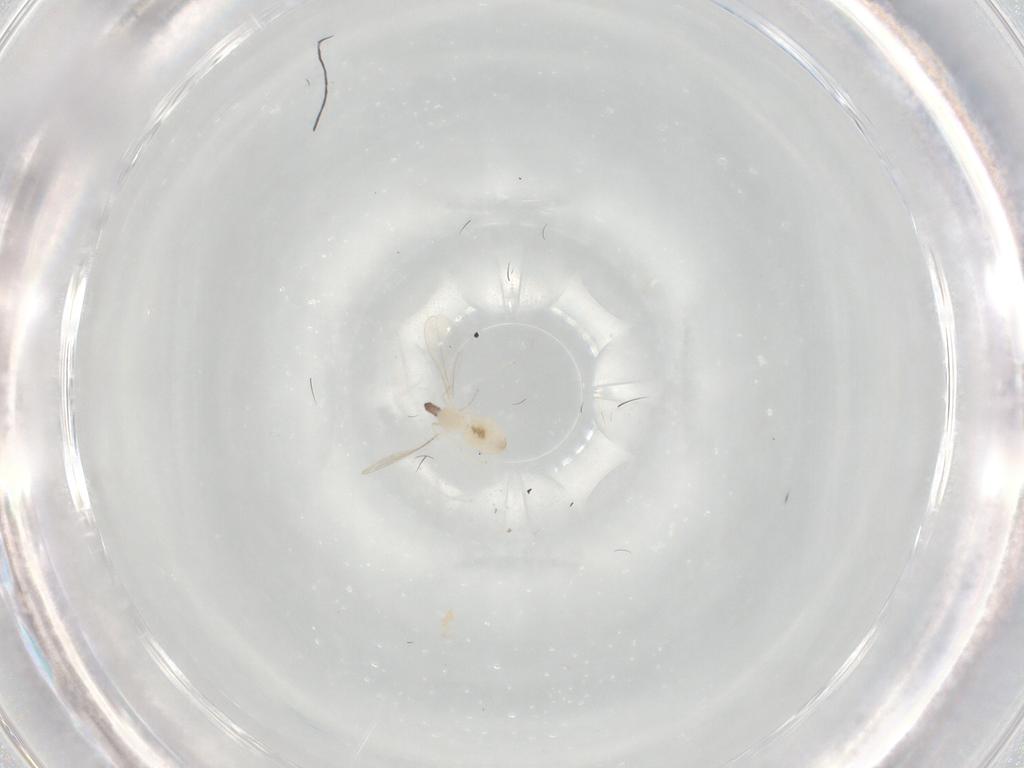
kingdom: Animalia
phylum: Arthropoda
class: Insecta
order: Diptera
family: Cecidomyiidae
